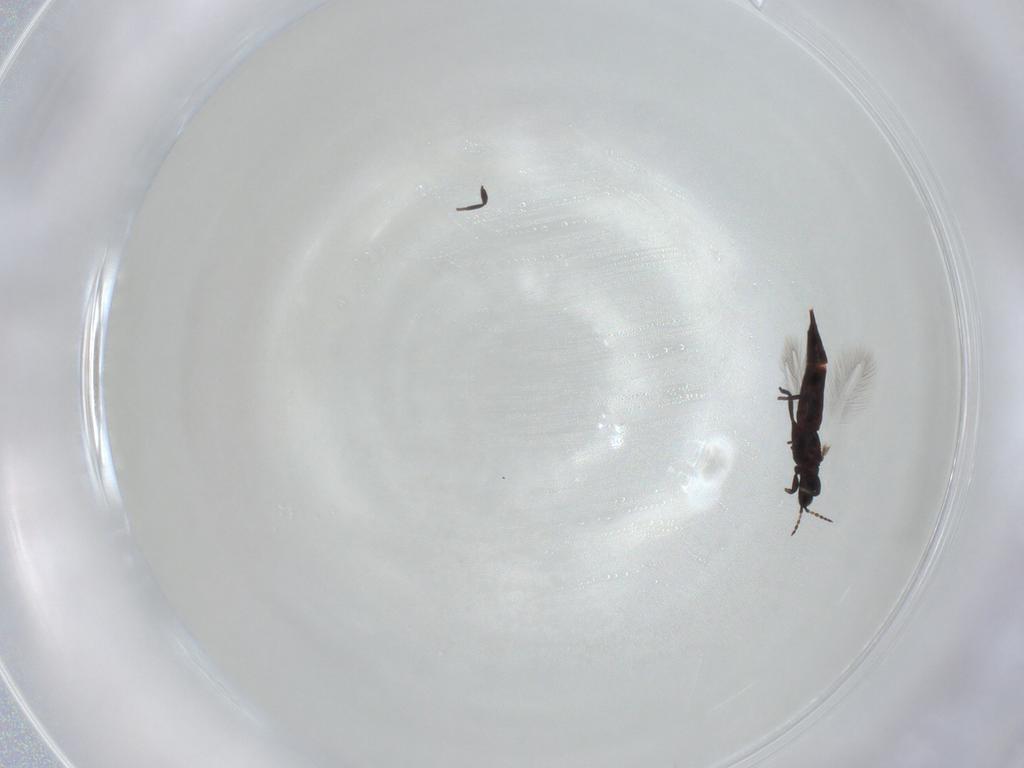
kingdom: Animalia
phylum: Arthropoda
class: Insecta
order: Thysanoptera
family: Phlaeothripidae
